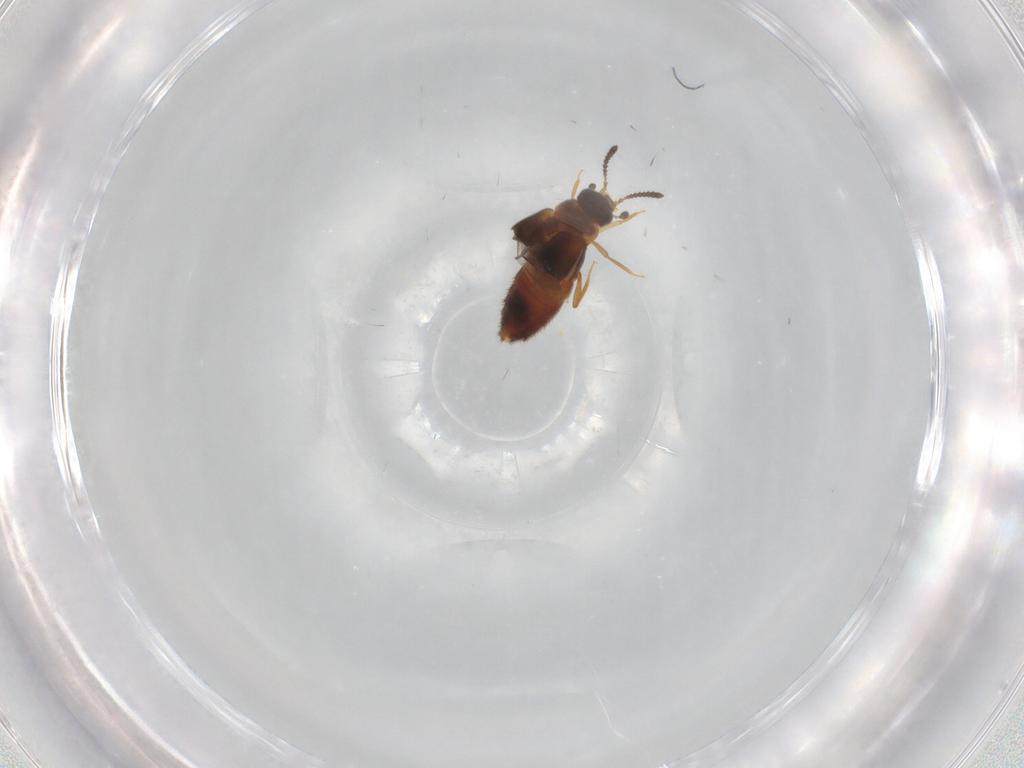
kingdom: Animalia
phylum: Arthropoda
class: Insecta
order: Coleoptera
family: Staphylinidae
